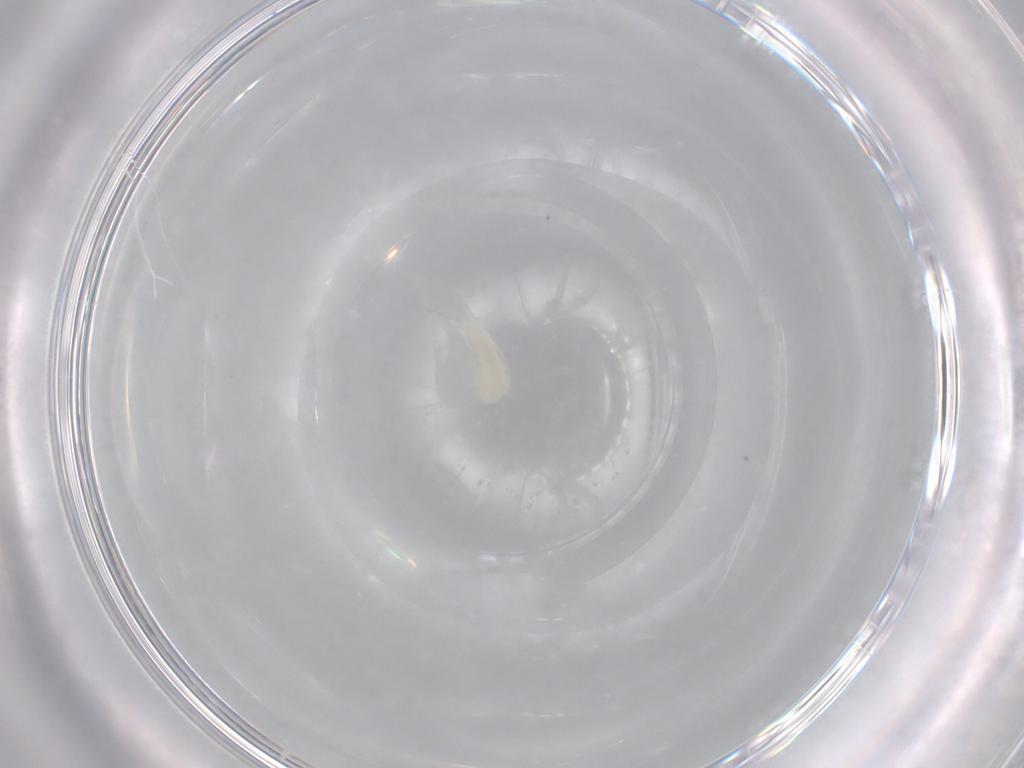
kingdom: Animalia
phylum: Arthropoda
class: Insecta
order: Hymenoptera
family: Ichneumonidae
